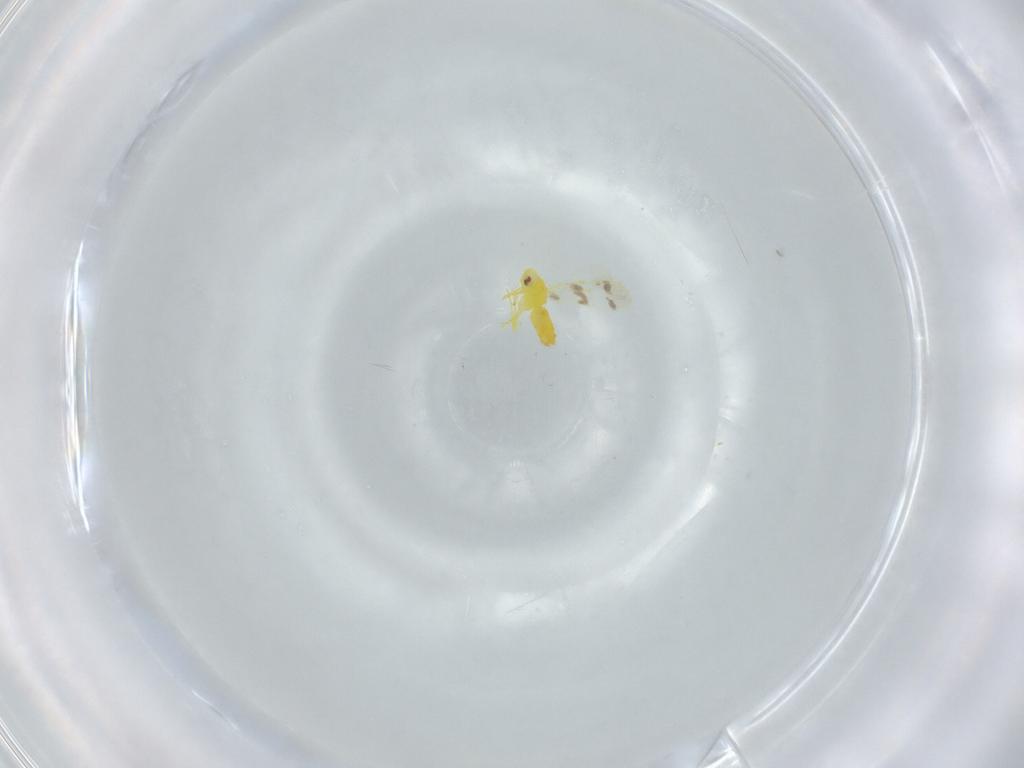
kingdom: Animalia
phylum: Arthropoda
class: Insecta
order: Hemiptera
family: Aleyrodidae
